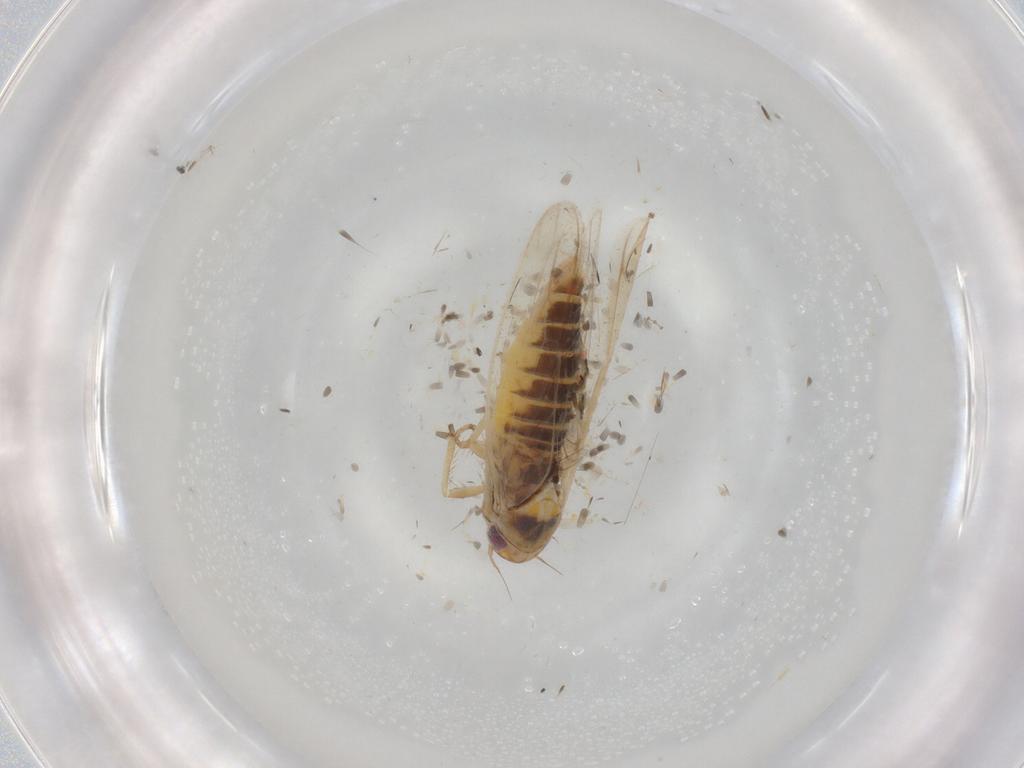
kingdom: Animalia
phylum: Arthropoda
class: Insecta
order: Hemiptera
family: Cicadellidae
